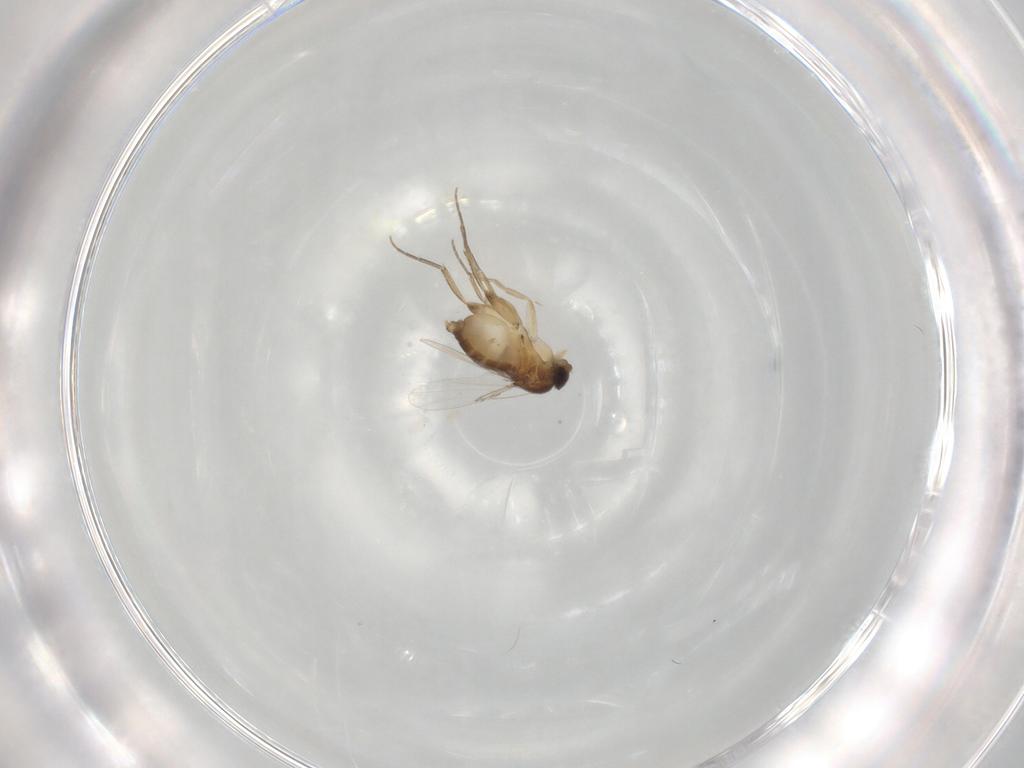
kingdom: Animalia
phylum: Arthropoda
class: Insecta
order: Diptera
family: Phoridae
